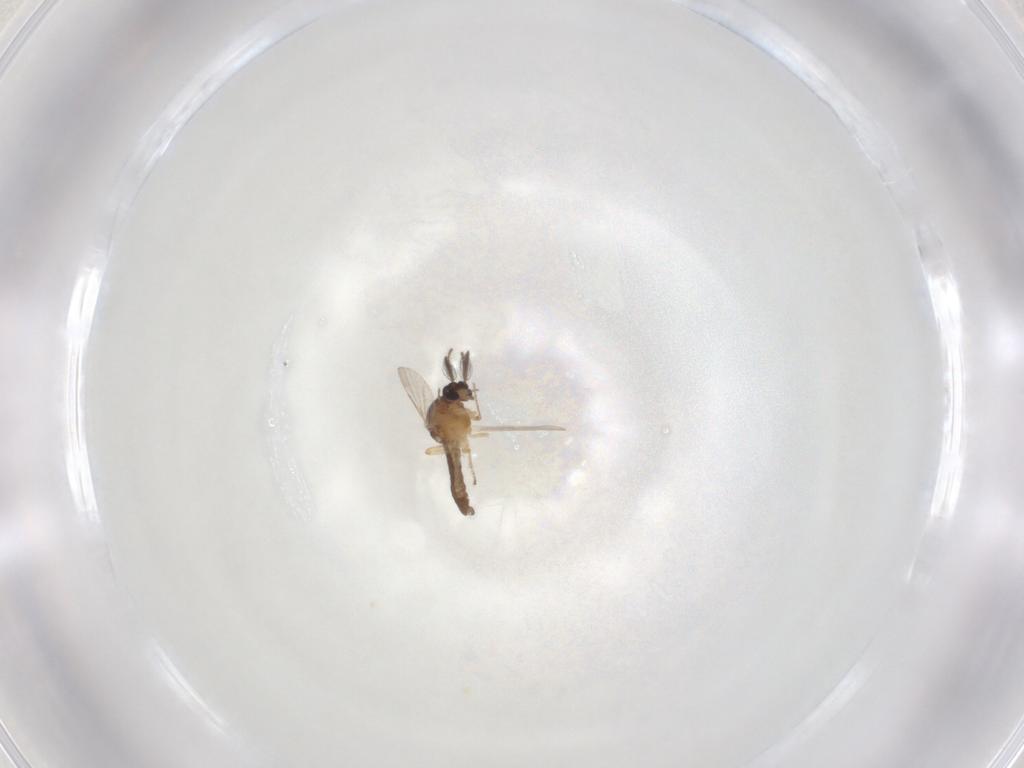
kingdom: Animalia
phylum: Arthropoda
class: Insecta
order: Diptera
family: Ceratopogonidae
